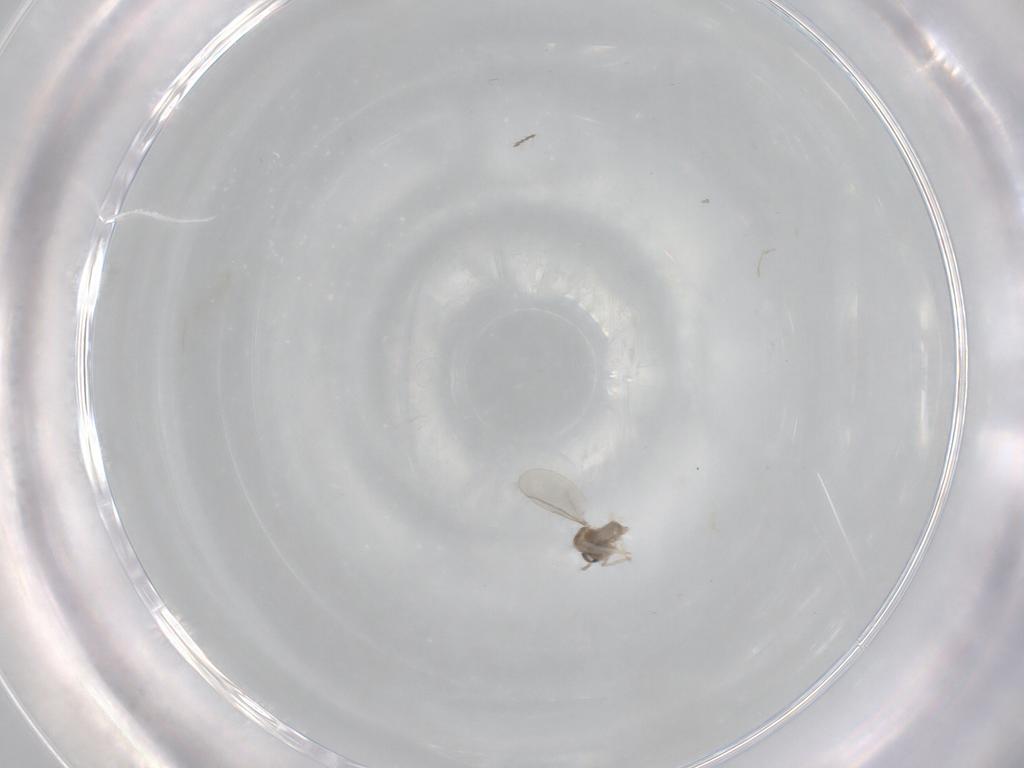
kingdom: Animalia
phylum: Arthropoda
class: Insecta
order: Diptera
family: Cecidomyiidae
